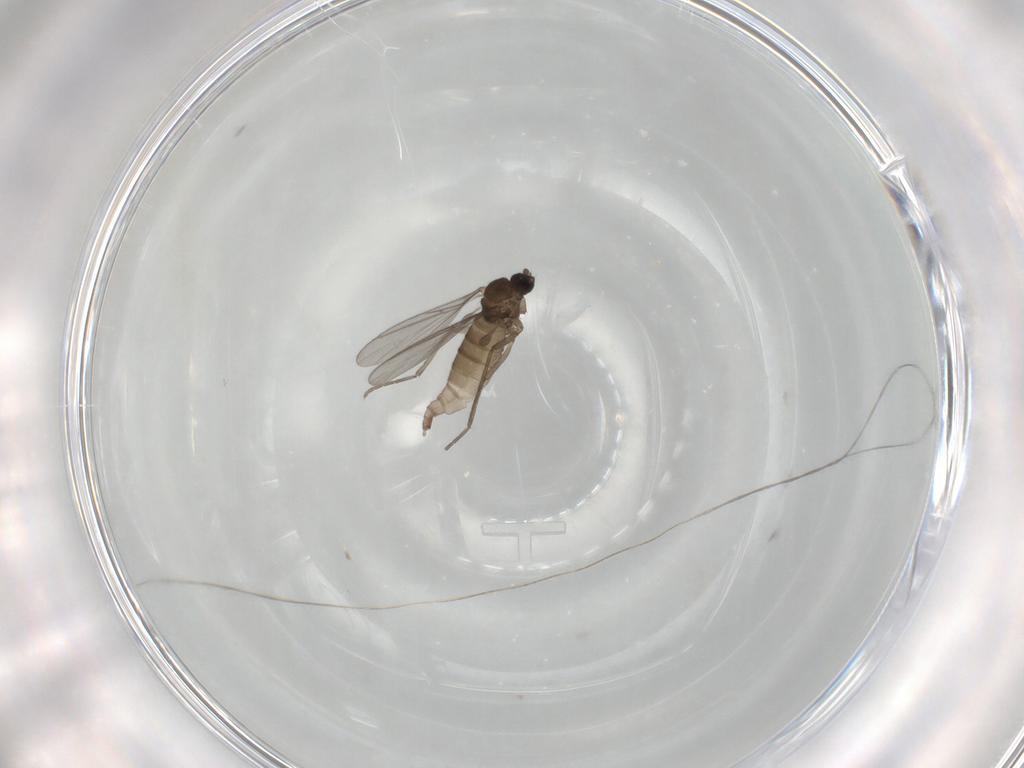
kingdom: Animalia
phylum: Arthropoda
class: Insecta
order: Diptera
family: Sciaridae
